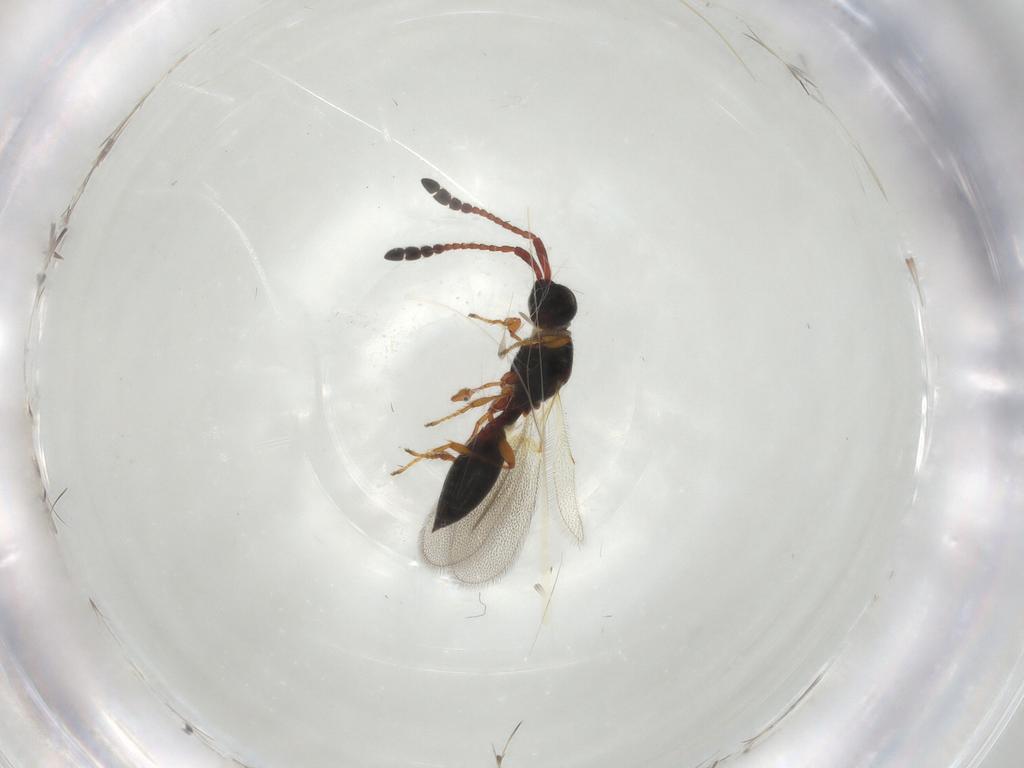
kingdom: Animalia
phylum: Arthropoda
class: Insecta
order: Hymenoptera
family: Diapriidae
